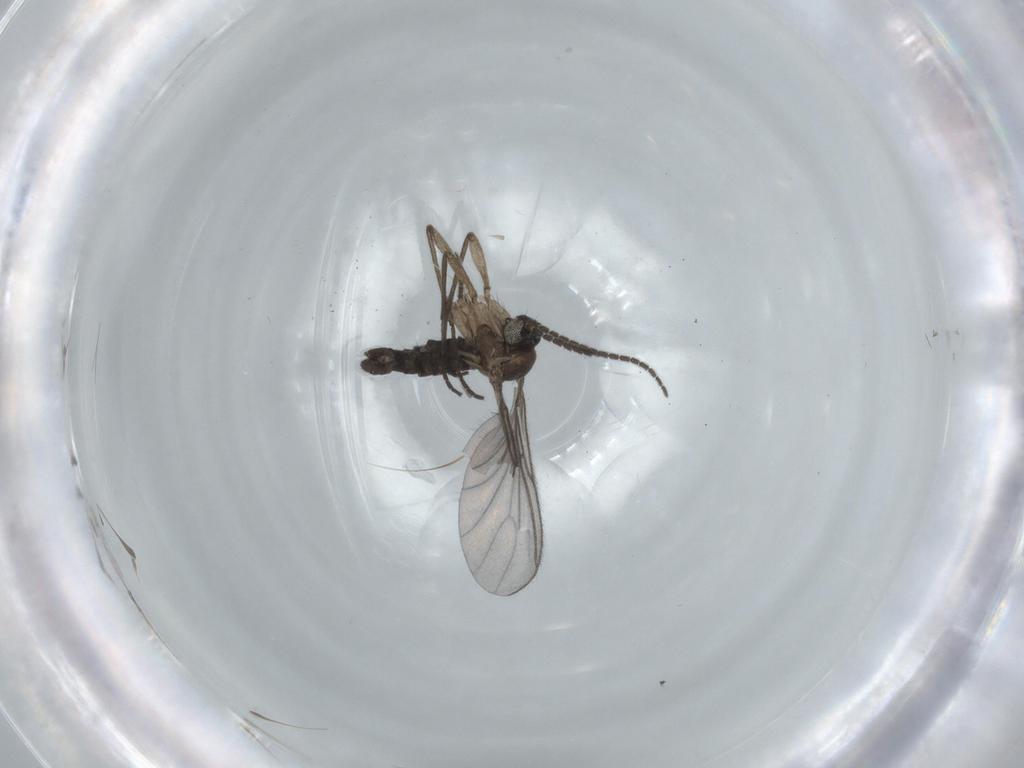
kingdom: Animalia
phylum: Arthropoda
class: Insecta
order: Diptera
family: Sciaridae
